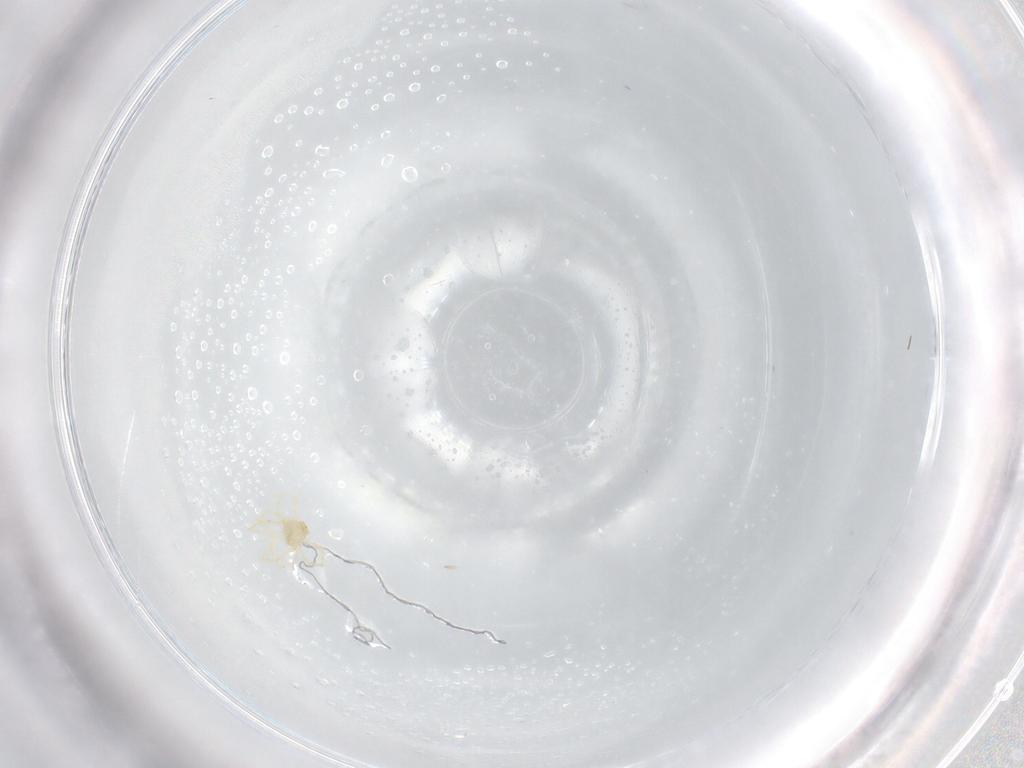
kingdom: Animalia
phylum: Arthropoda
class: Arachnida
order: Trombidiformes
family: Erythraeidae
